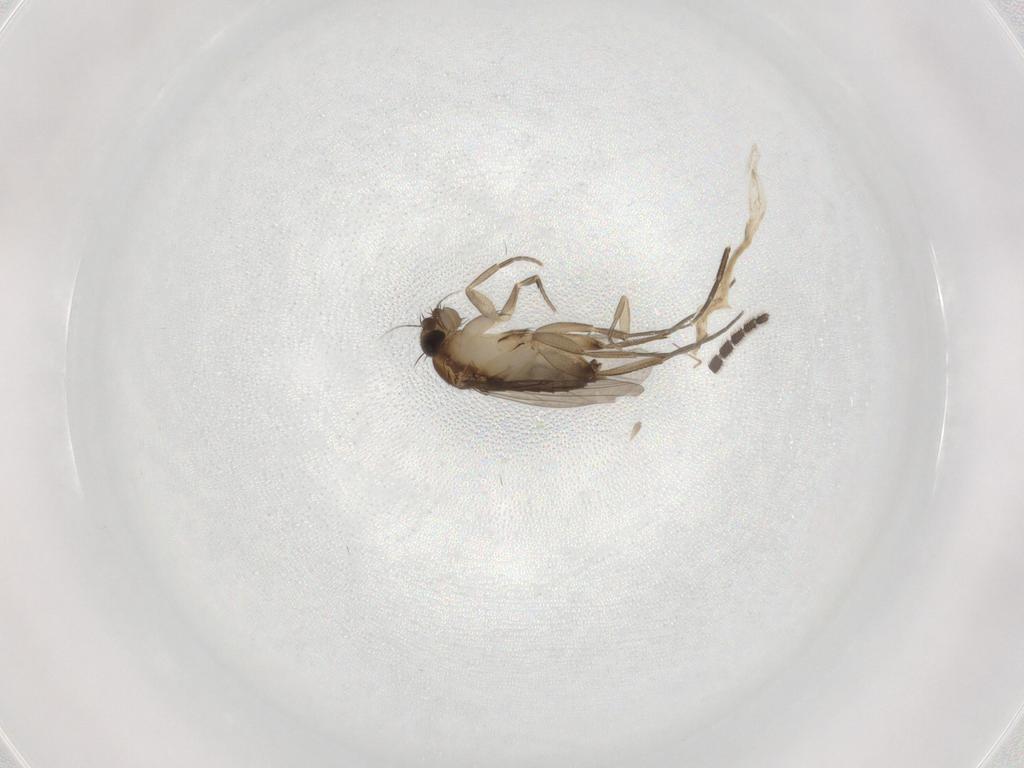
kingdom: Animalia
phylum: Arthropoda
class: Insecta
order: Diptera
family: Phoridae
